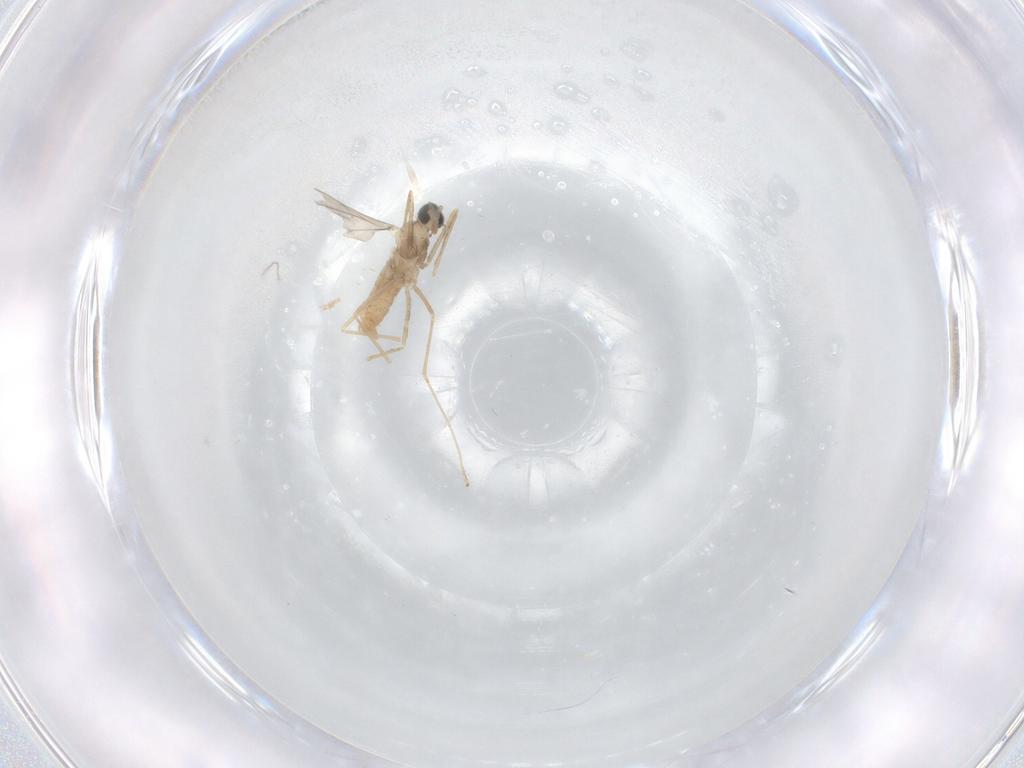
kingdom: Animalia
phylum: Arthropoda
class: Insecta
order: Diptera
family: Cecidomyiidae
